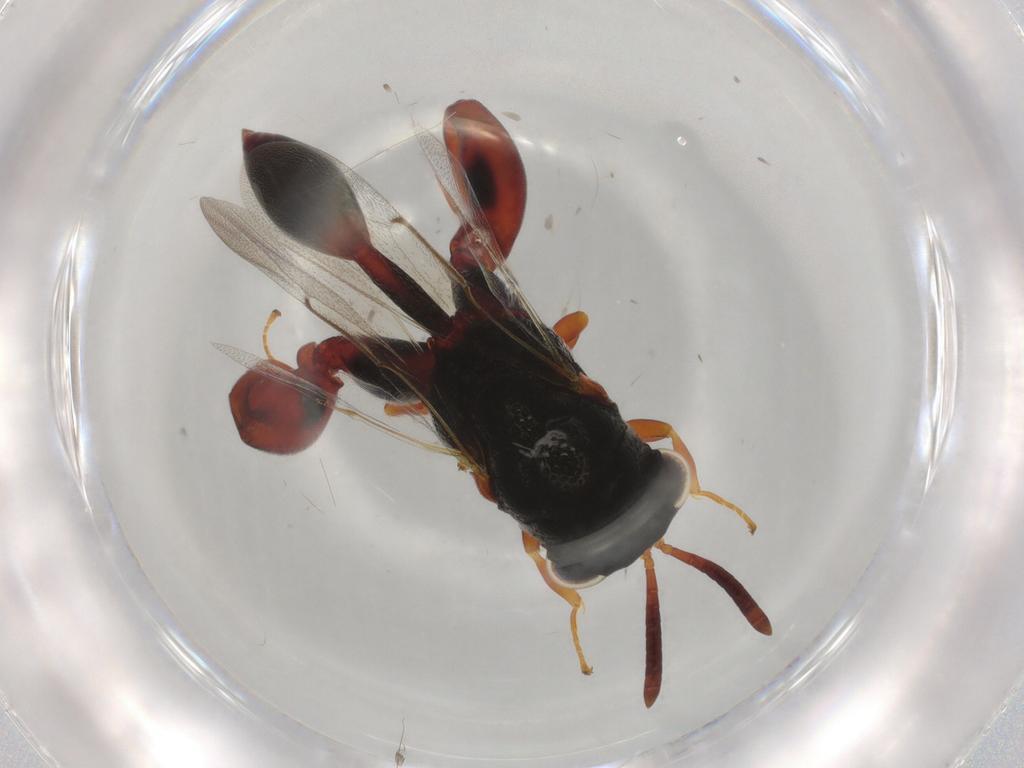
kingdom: Animalia
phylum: Arthropoda
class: Insecta
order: Hymenoptera
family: Chalcididae
